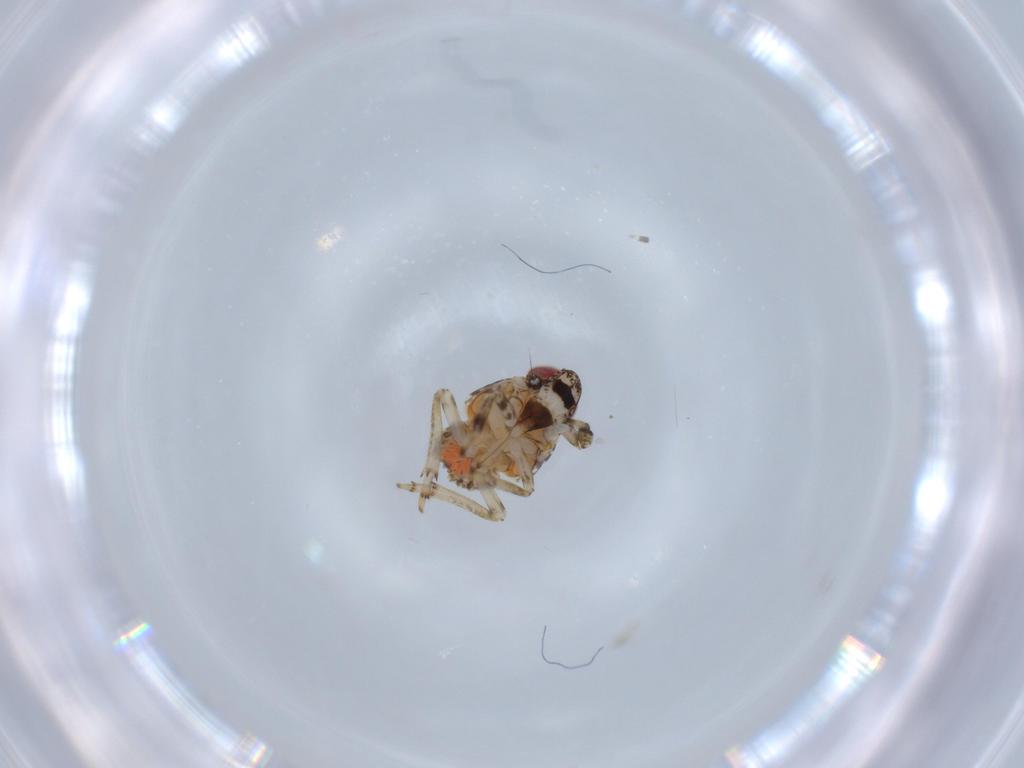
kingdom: Animalia
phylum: Arthropoda
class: Insecta
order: Hemiptera
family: Issidae
